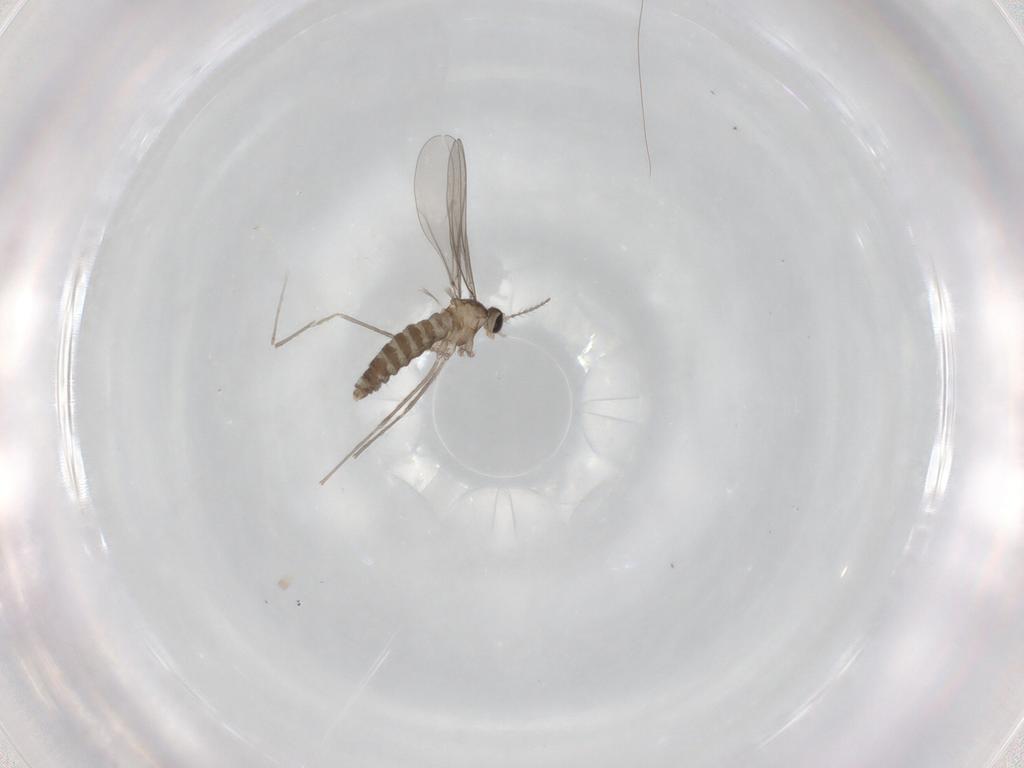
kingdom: Animalia
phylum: Arthropoda
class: Insecta
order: Diptera
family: Cecidomyiidae
